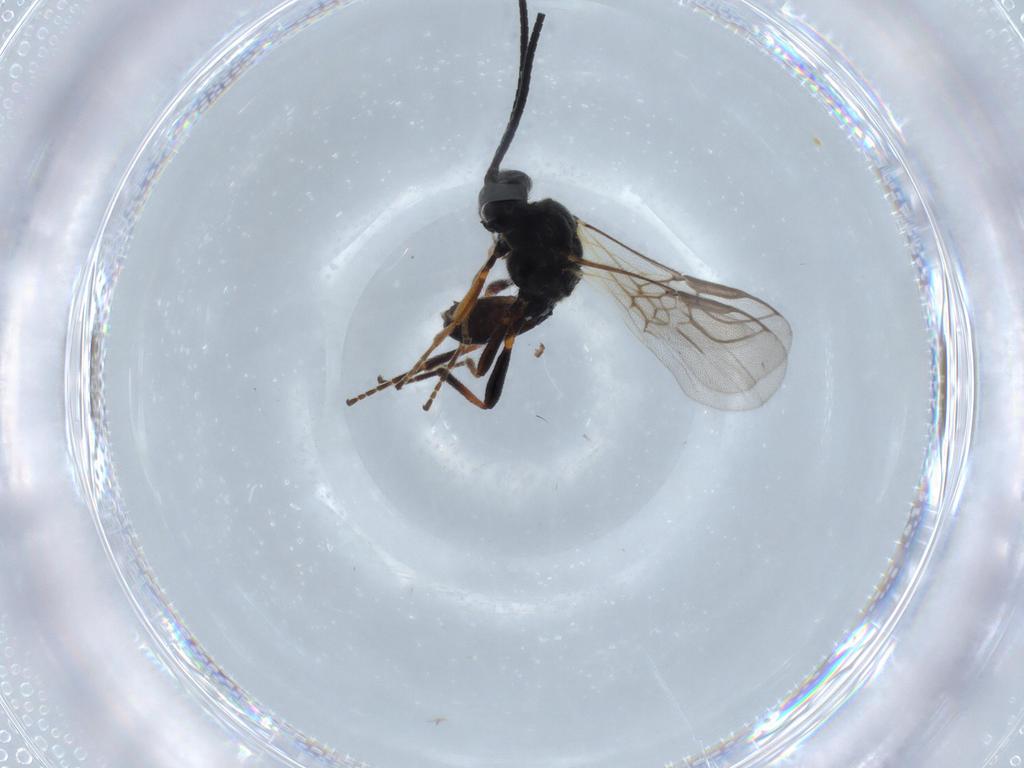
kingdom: Animalia
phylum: Arthropoda
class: Insecta
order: Hymenoptera
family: Braconidae
